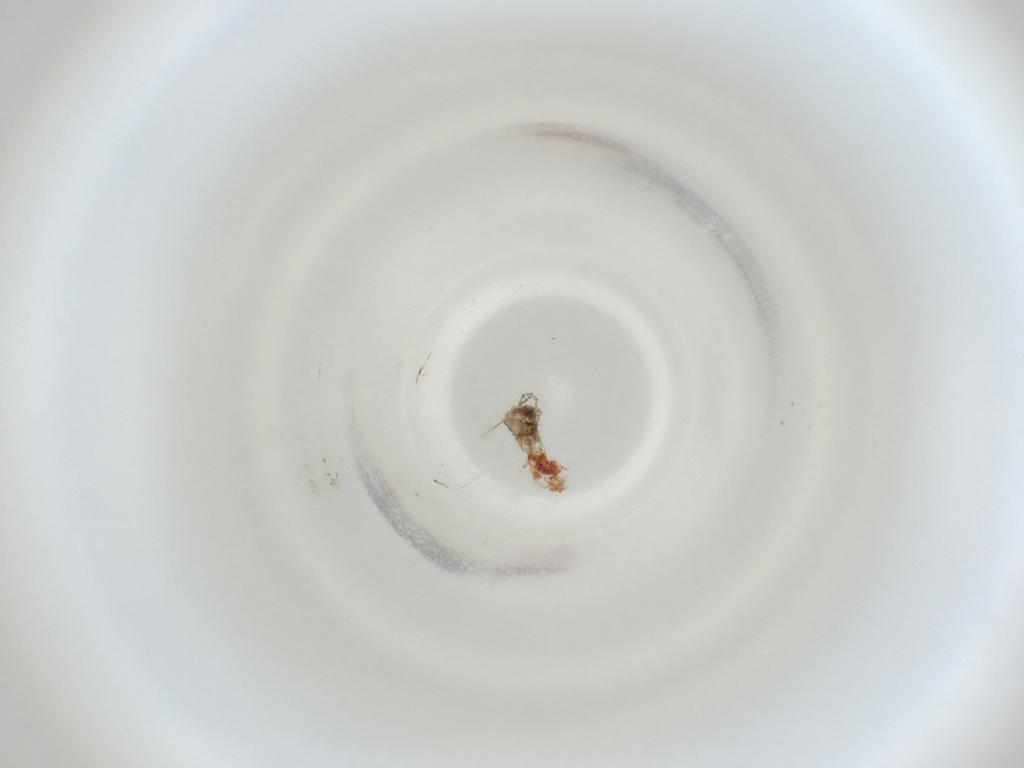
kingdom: Animalia
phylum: Arthropoda
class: Insecta
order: Diptera
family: Cecidomyiidae
